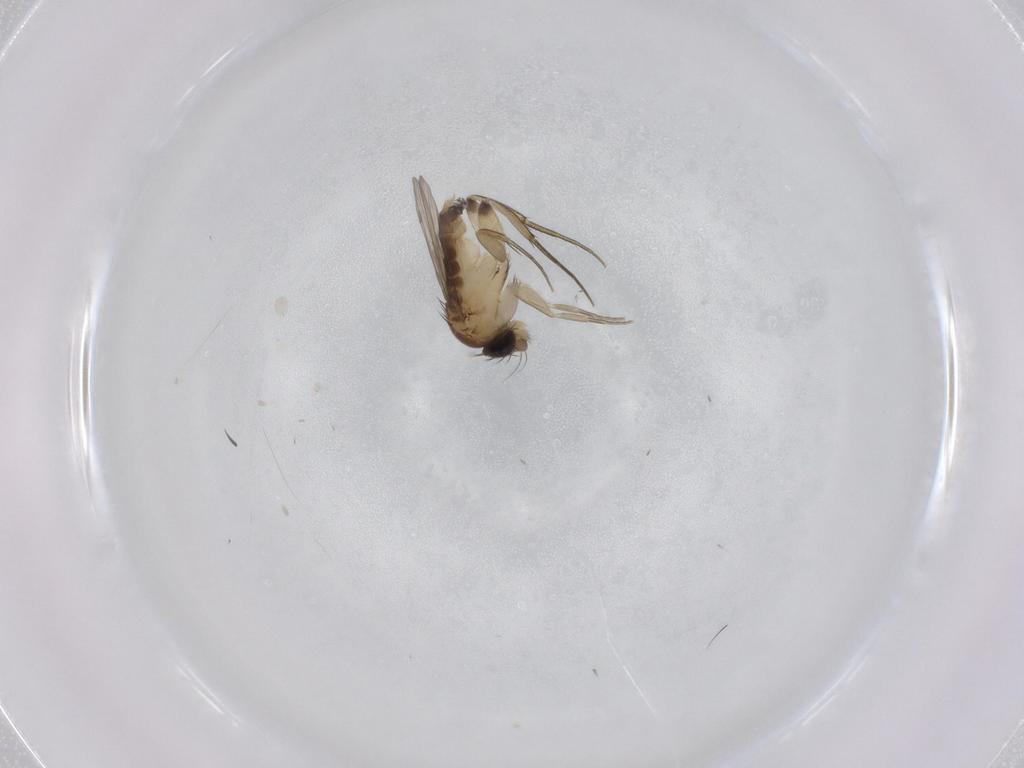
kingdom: Animalia
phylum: Arthropoda
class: Insecta
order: Diptera
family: Phoridae
